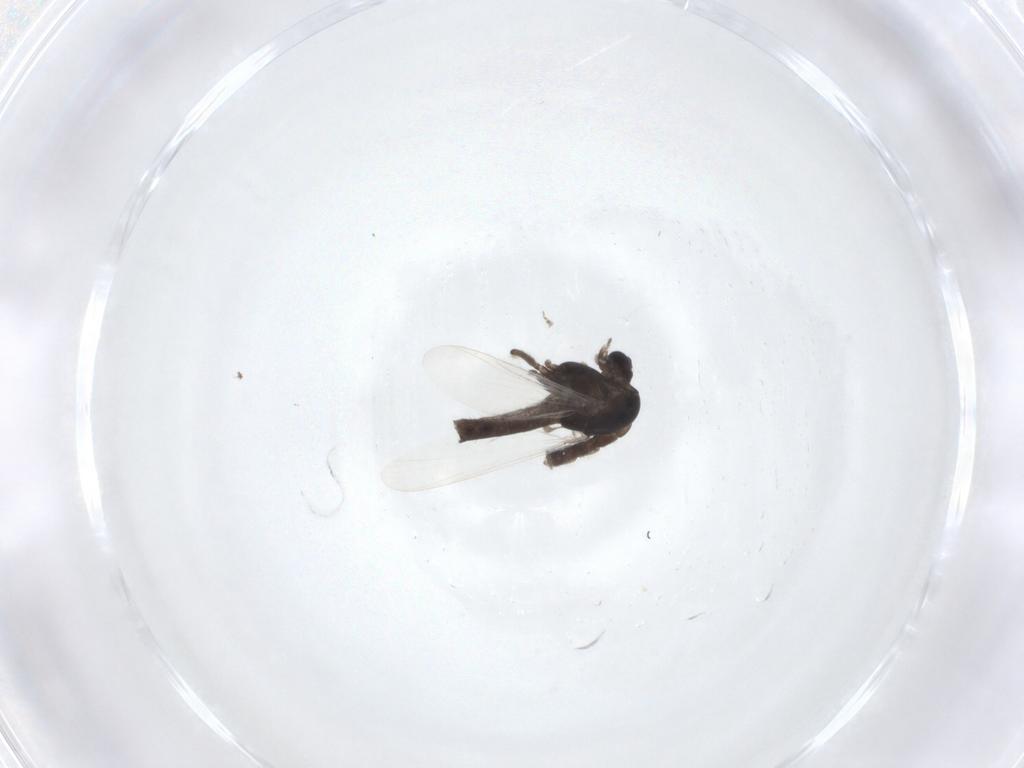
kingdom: Animalia
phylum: Arthropoda
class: Insecta
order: Diptera
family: Chironomidae
